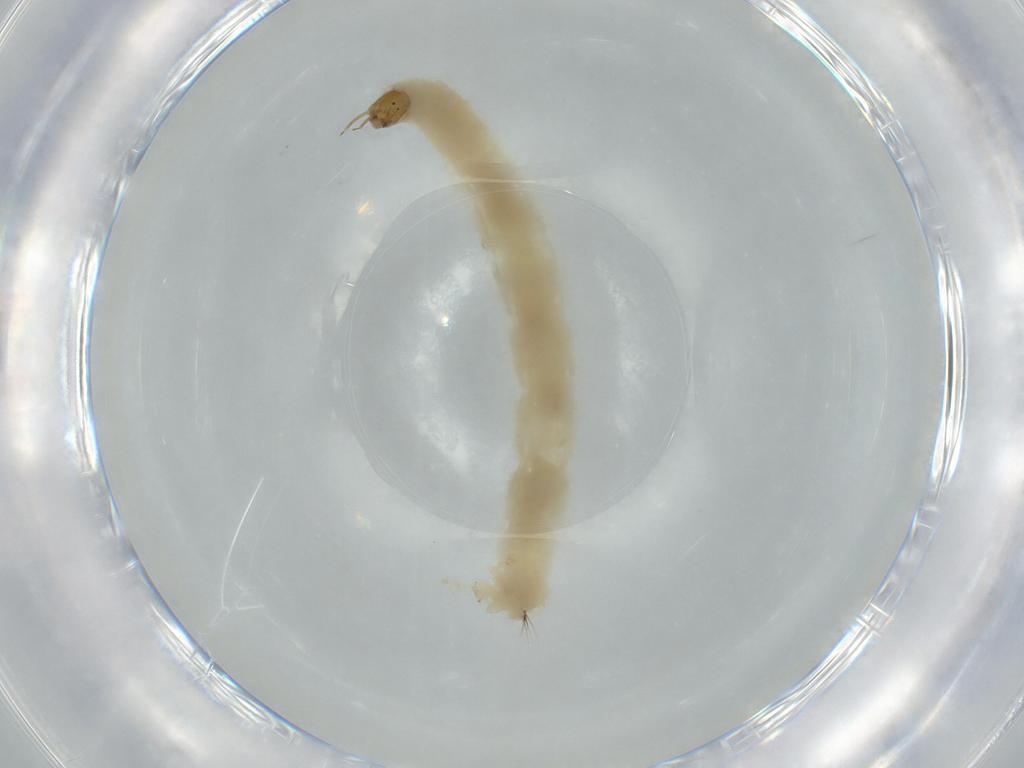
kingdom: Animalia
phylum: Arthropoda
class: Insecta
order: Diptera
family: Chironomidae
